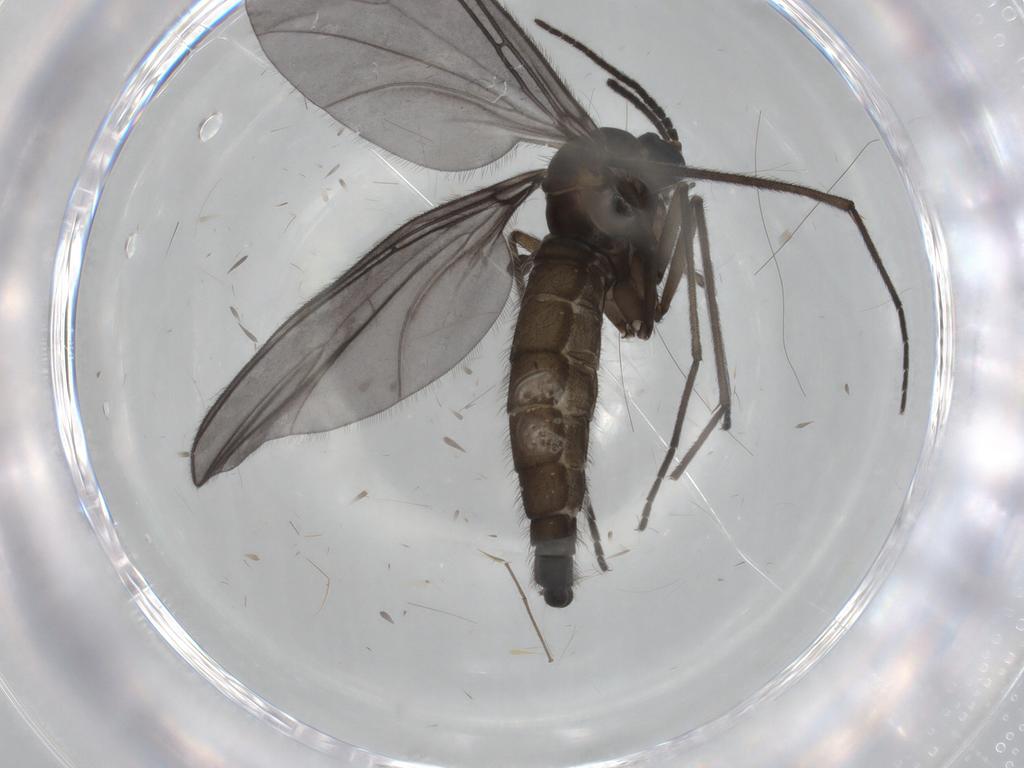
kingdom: Animalia
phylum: Arthropoda
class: Insecta
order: Diptera
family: Sciaridae
